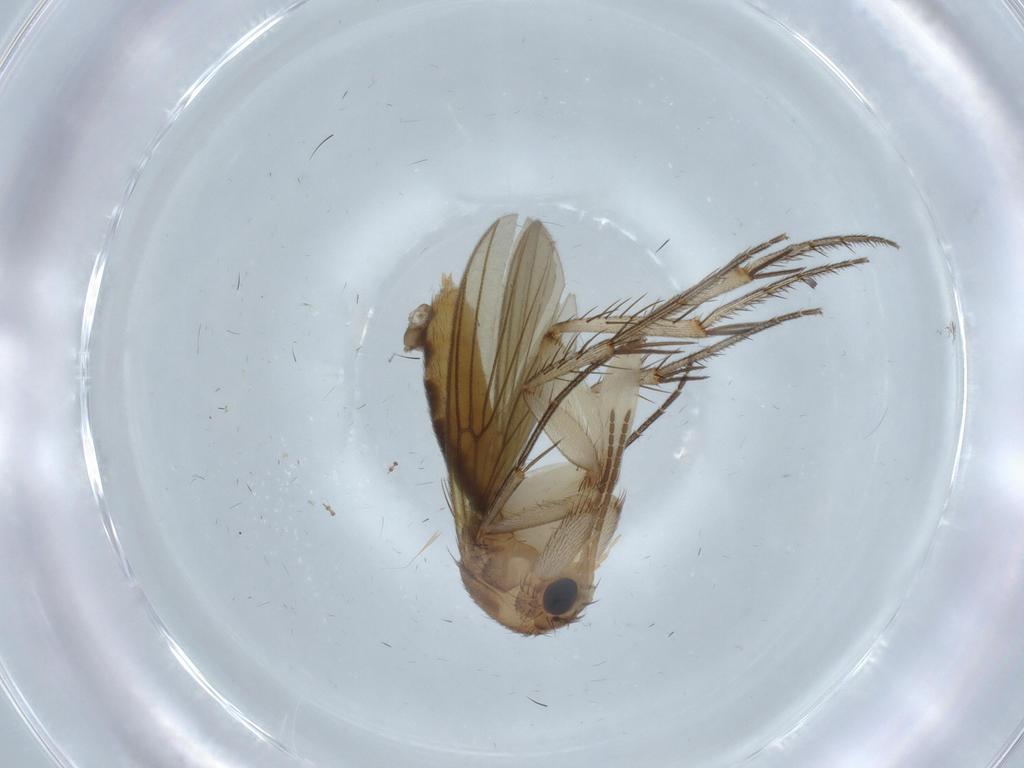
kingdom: Animalia
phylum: Arthropoda
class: Insecta
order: Diptera
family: Hybotidae
